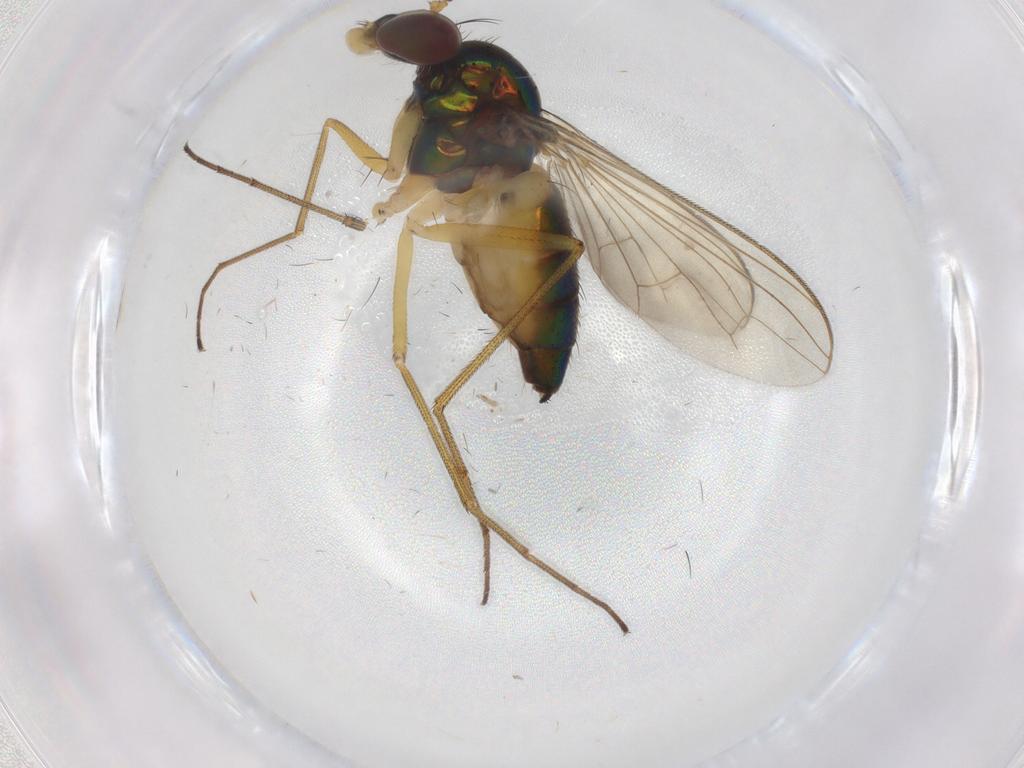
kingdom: Animalia
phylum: Arthropoda
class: Insecta
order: Diptera
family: Dolichopodidae
